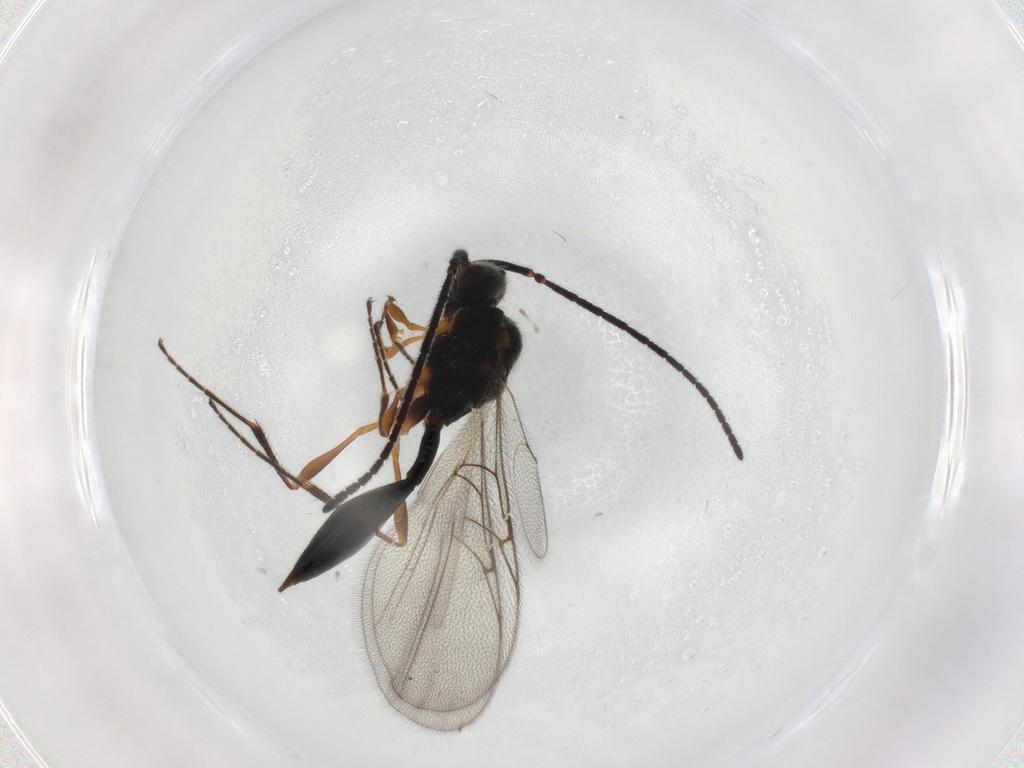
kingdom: Animalia
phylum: Arthropoda
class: Insecta
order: Hymenoptera
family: Diapriidae
